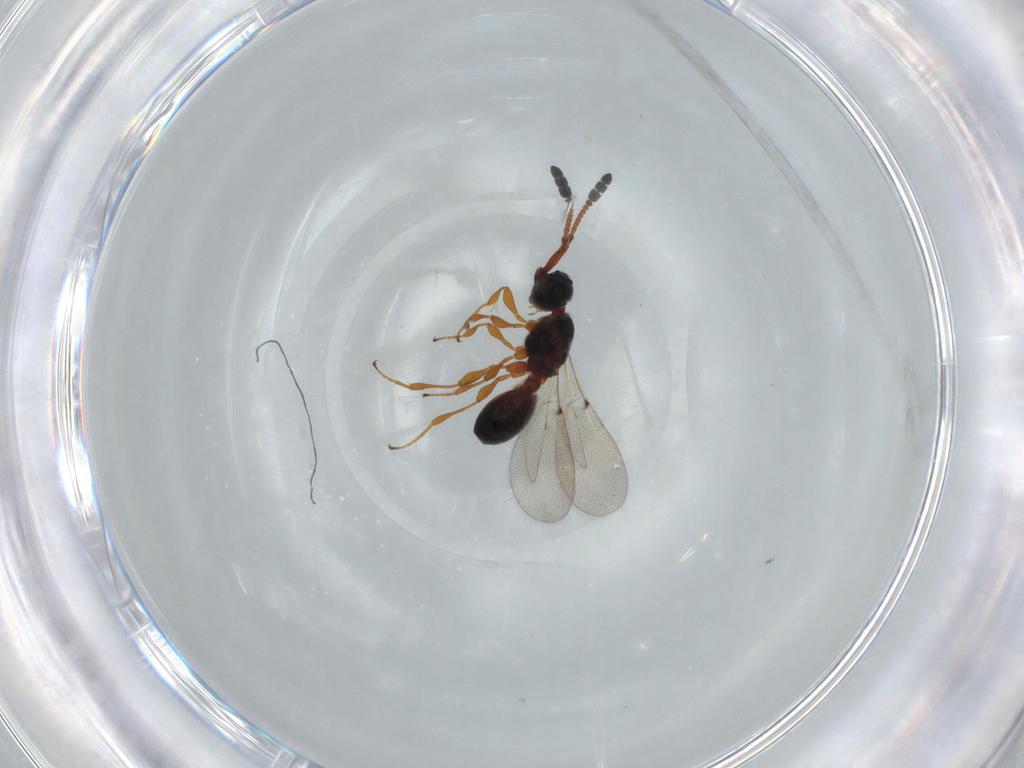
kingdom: Animalia
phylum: Arthropoda
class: Insecta
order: Hymenoptera
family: Diapriidae
